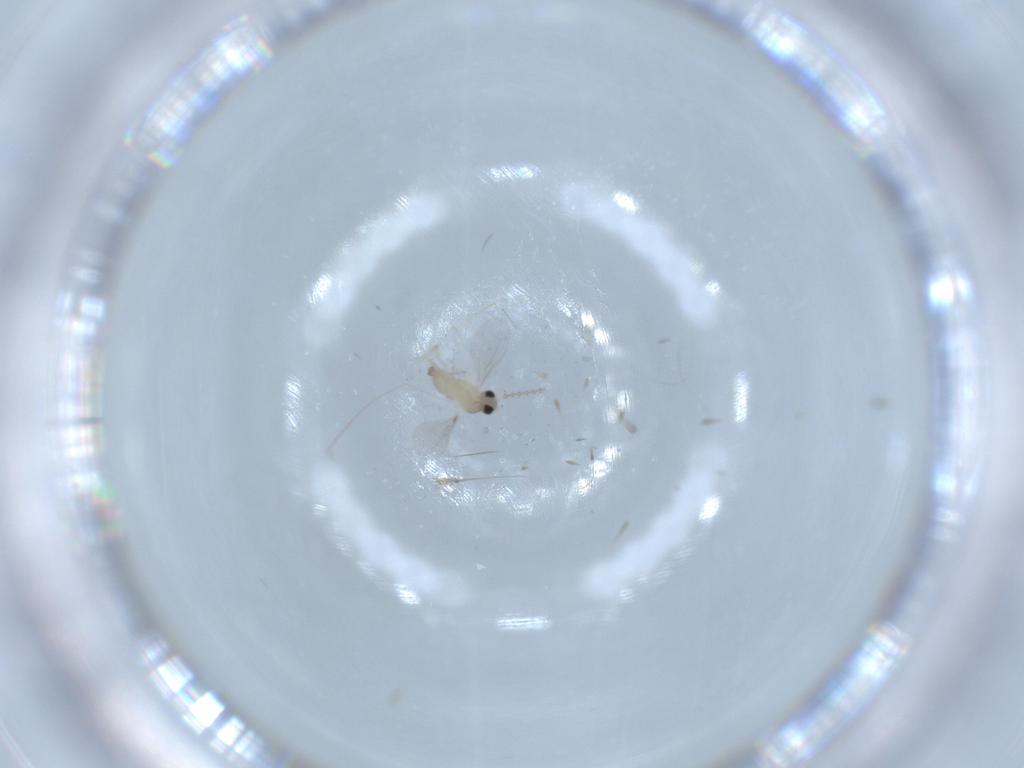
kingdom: Animalia
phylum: Arthropoda
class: Insecta
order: Diptera
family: Cecidomyiidae
